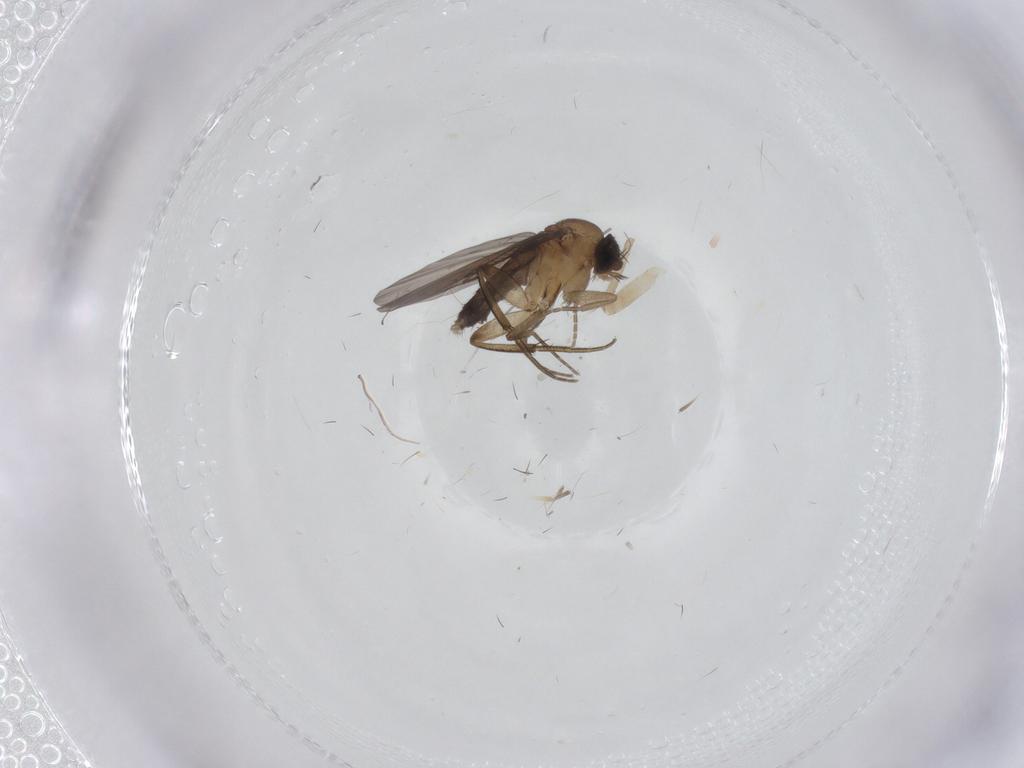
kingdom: Animalia
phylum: Arthropoda
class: Insecta
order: Diptera
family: Phoridae
